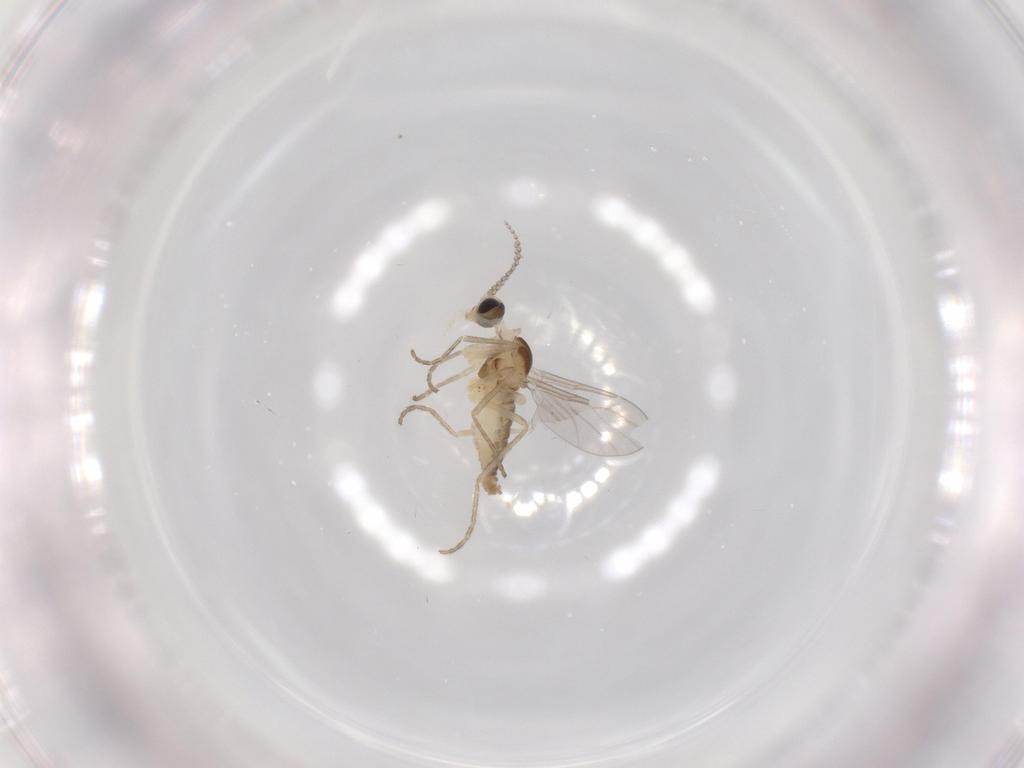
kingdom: Animalia
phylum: Arthropoda
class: Insecta
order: Diptera
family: Cecidomyiidae
